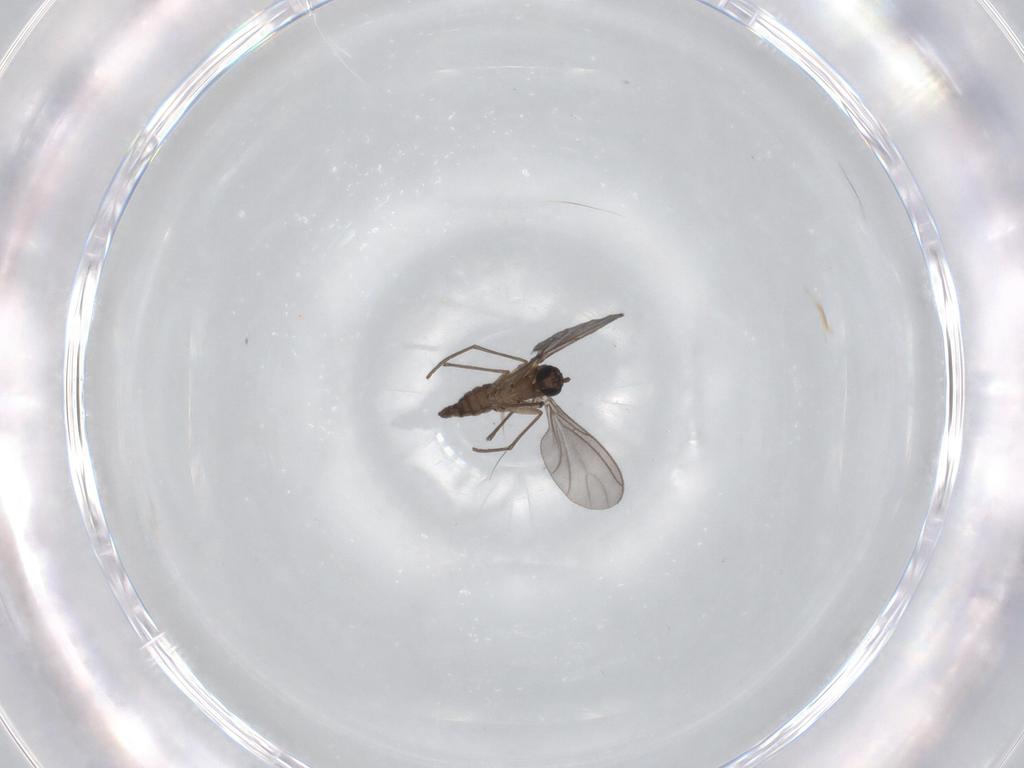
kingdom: Animalia
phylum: Arthropoda
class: Insecta
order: Diptera
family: Sciaridae
